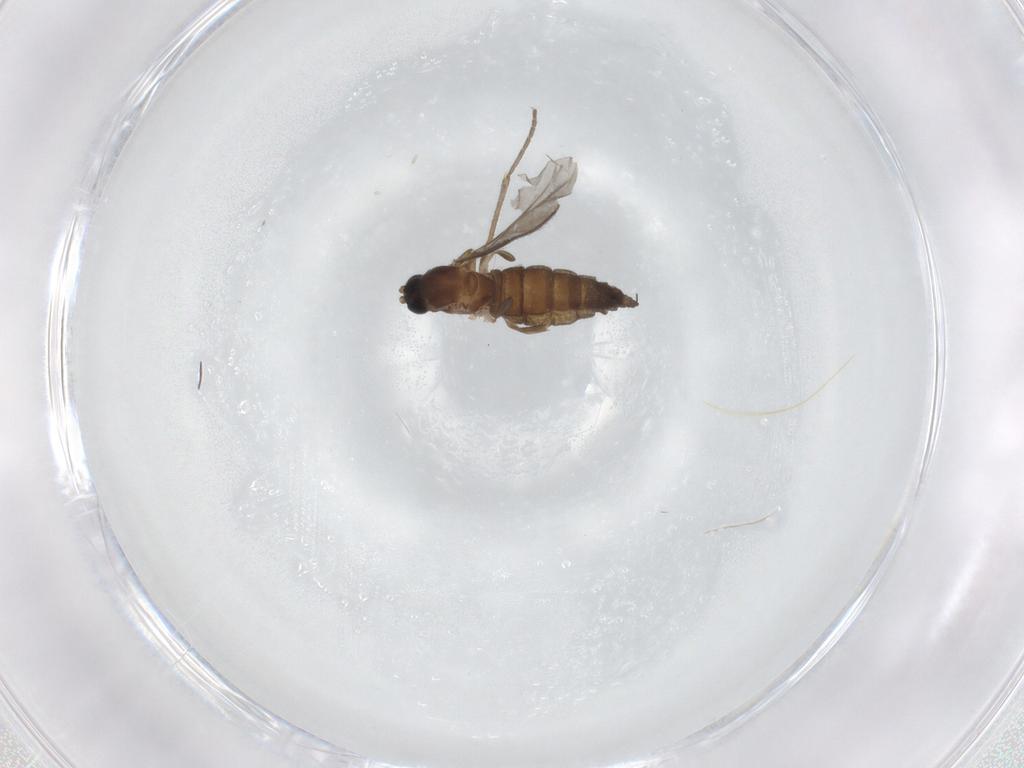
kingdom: Animalia
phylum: Arthropoda
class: Insecta
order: Diptera
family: Sciaridae
